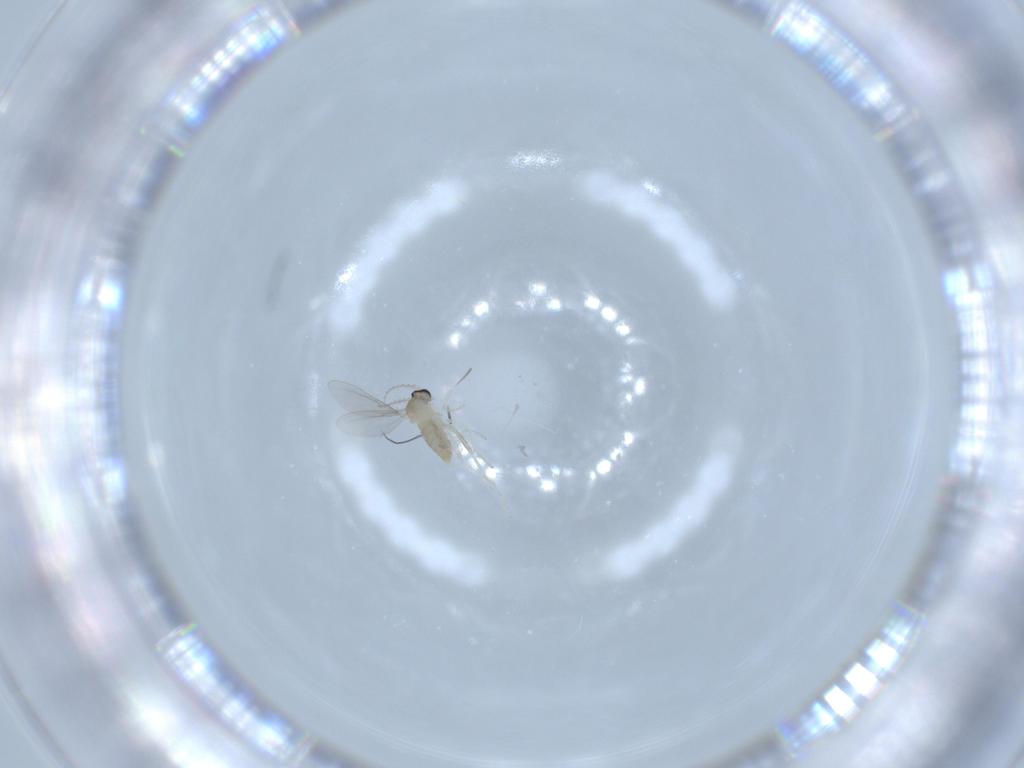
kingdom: Animalia
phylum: Arthropoda
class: Insecta
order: Diptera
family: Cecidomyiidae
